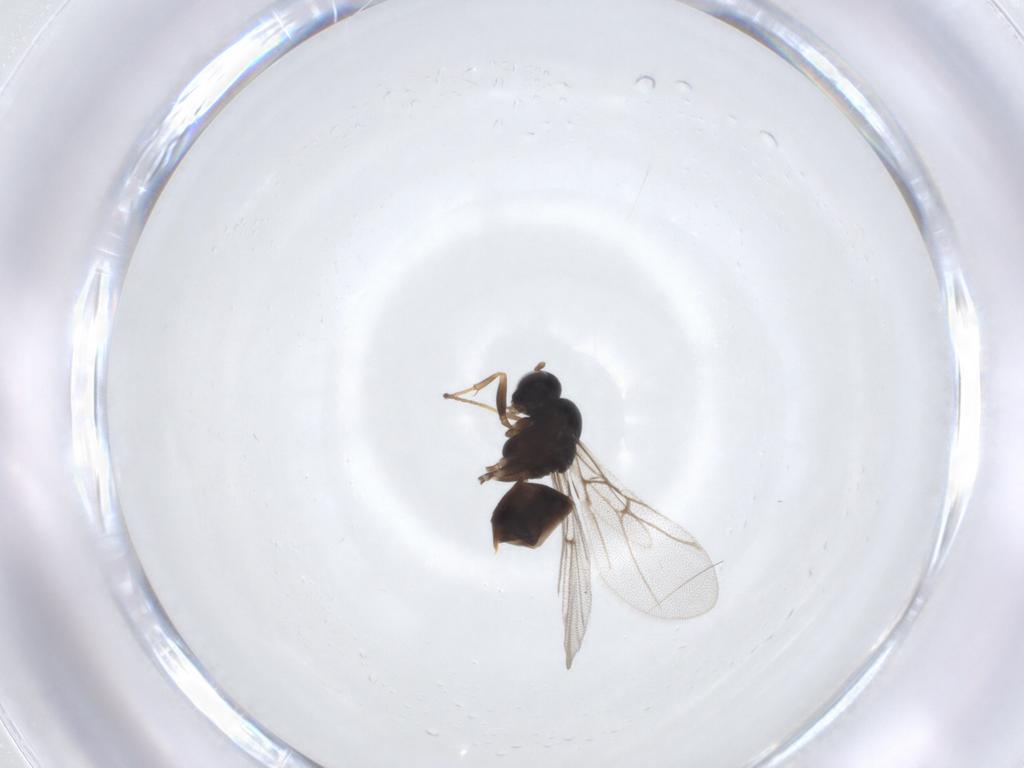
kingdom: Animalia
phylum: Arthropoda
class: Insecta
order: Hymenoptera
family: Cynipidae
